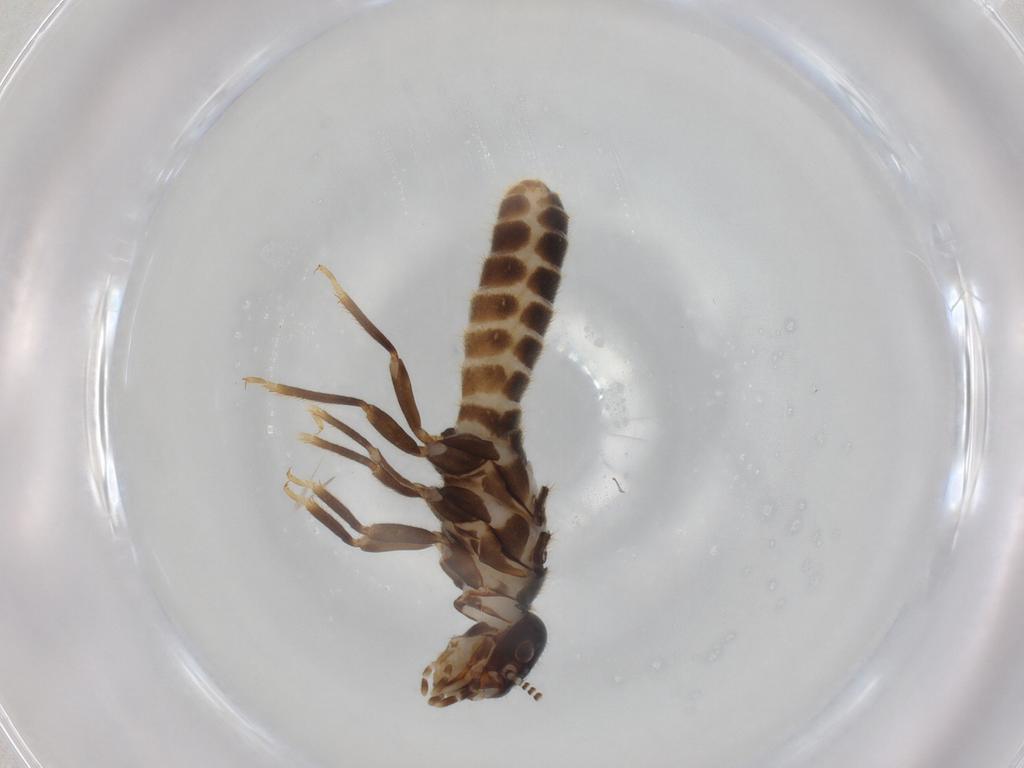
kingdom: Animalia
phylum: Arthropoda
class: Insecta
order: Blattodea
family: Termitidae
